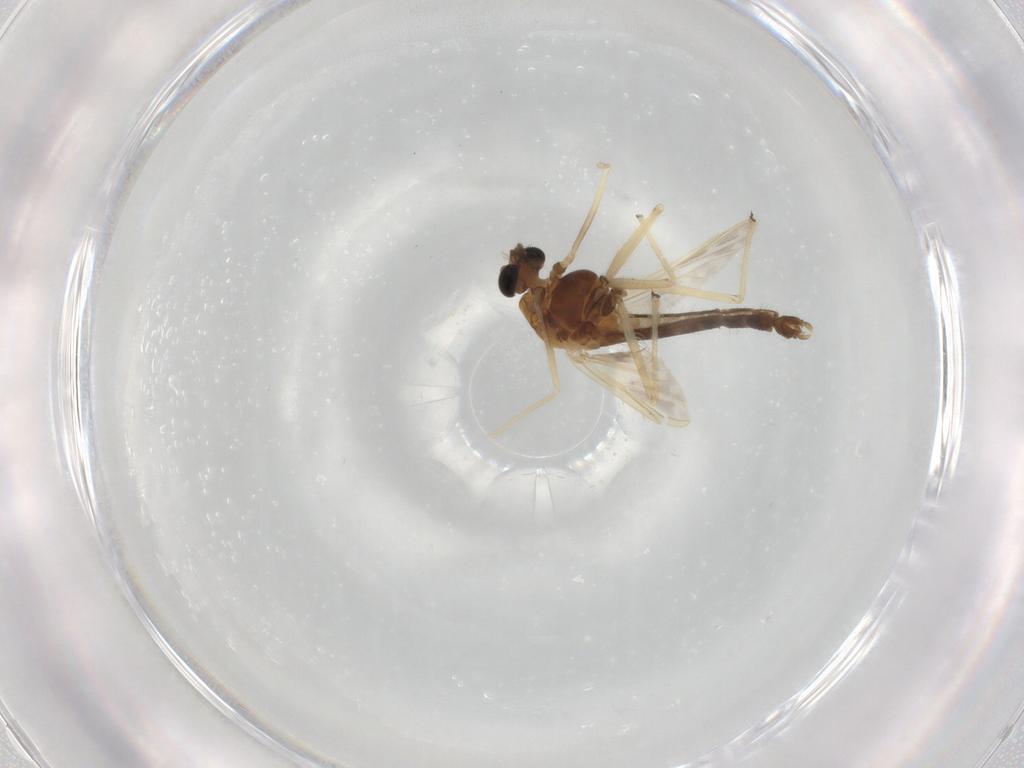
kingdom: Animalia
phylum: Arthropoda
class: Insecta
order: Diptera
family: Chironomidae
